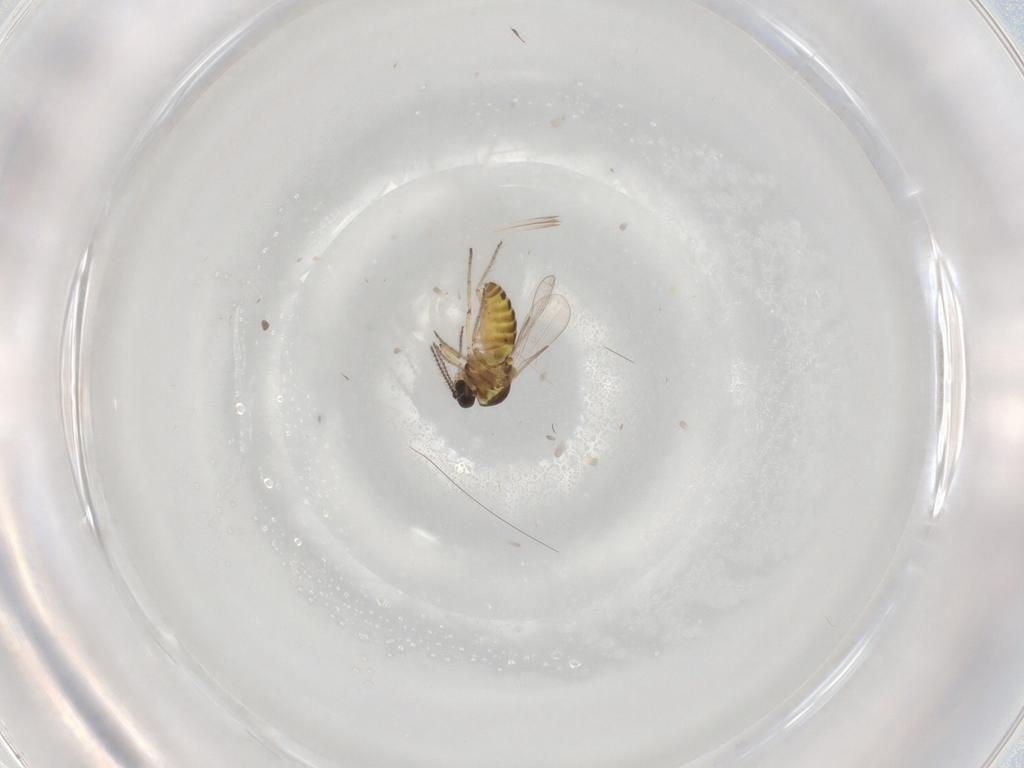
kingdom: Animalia
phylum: Arthropoda
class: Insecta
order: Diptera
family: Ceratopogonidae
